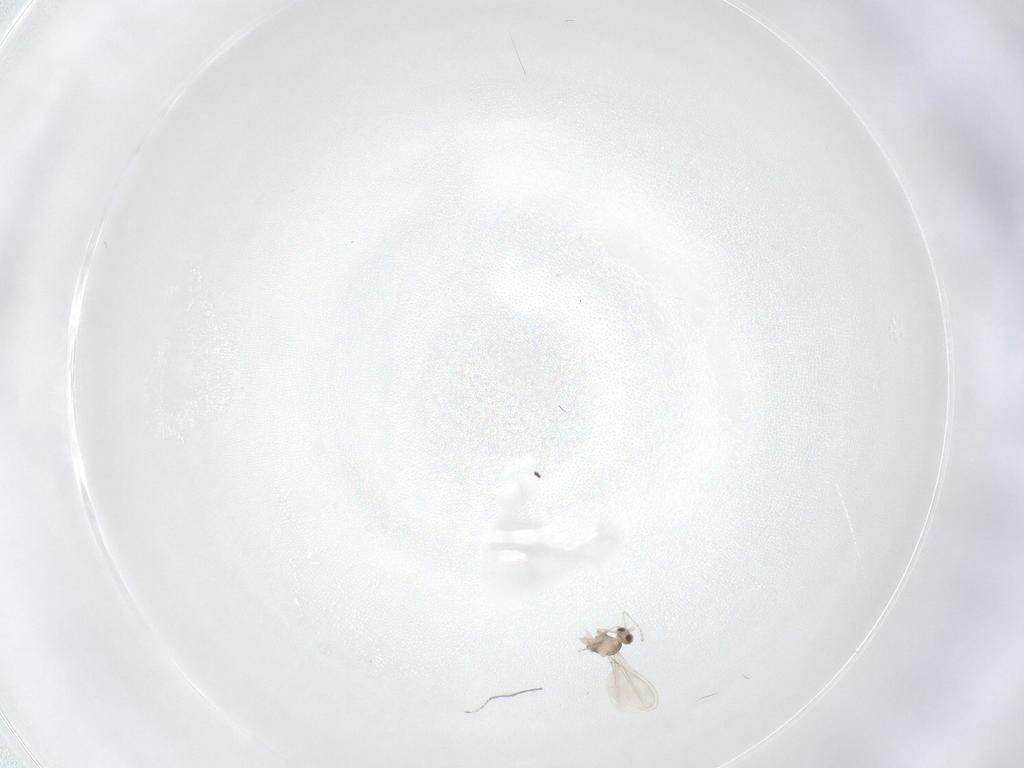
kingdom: Animalia
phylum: Arthropoda
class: Insecta
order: Diptera
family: Cecidomyiidae
